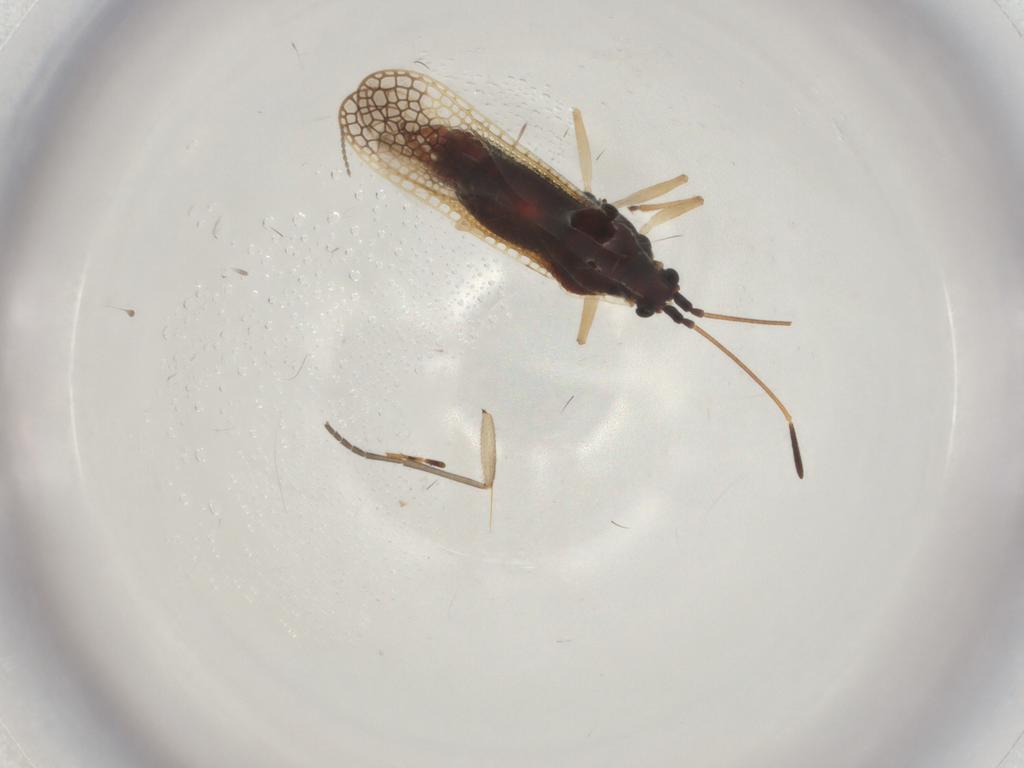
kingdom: Animalia
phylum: Arthropoda
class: Insecta
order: Hemiptera
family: Tingidae
